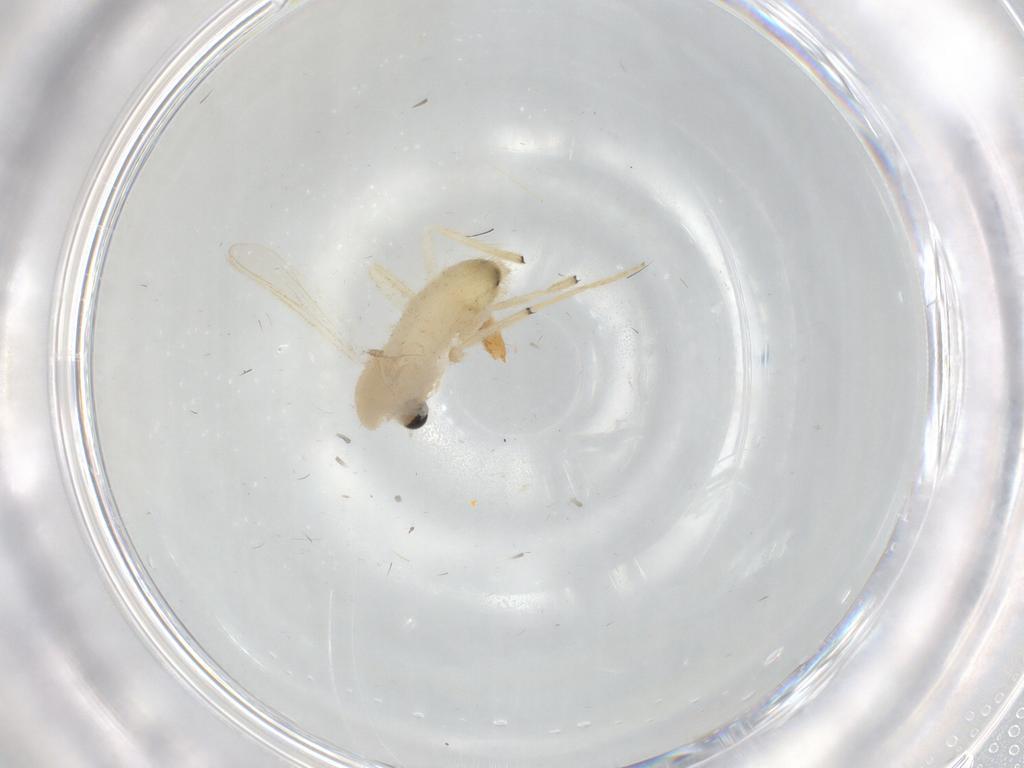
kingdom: Animalia
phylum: Arthropoda
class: Insecta
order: Diptera
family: Chironomidae
